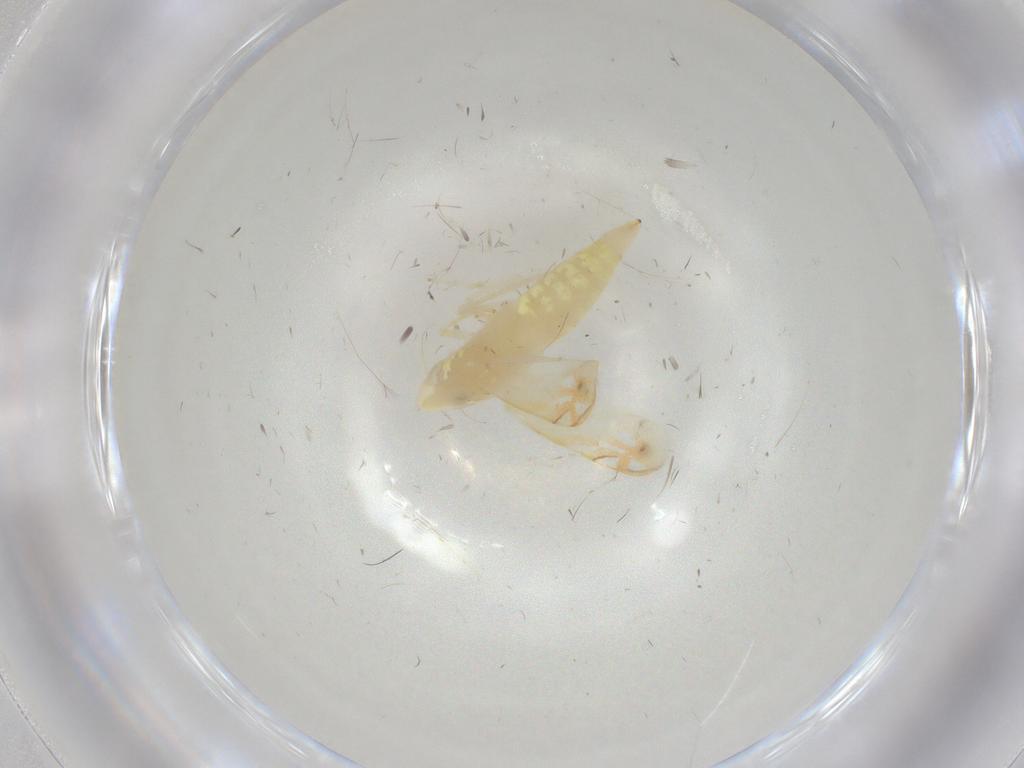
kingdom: Animalia
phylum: Arthropoda
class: Insecta
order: Hemiptera
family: Cicadellidae
